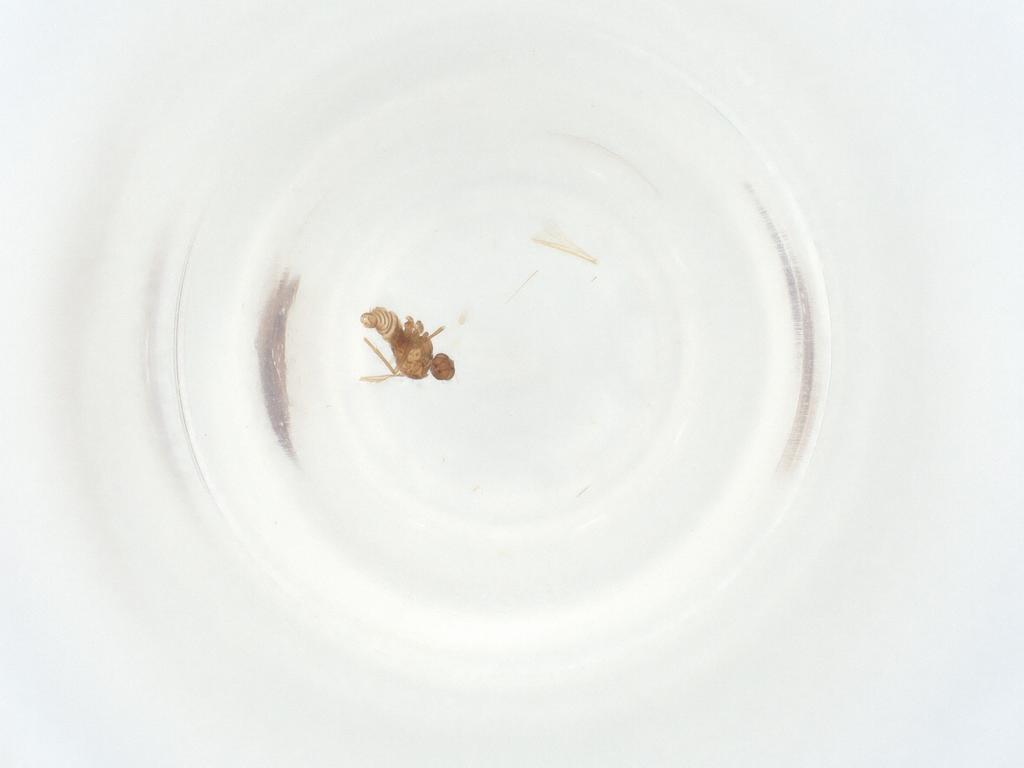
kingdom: Animalia
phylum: Arthropoda
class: Insecta
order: Diptera
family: Sciaridae
